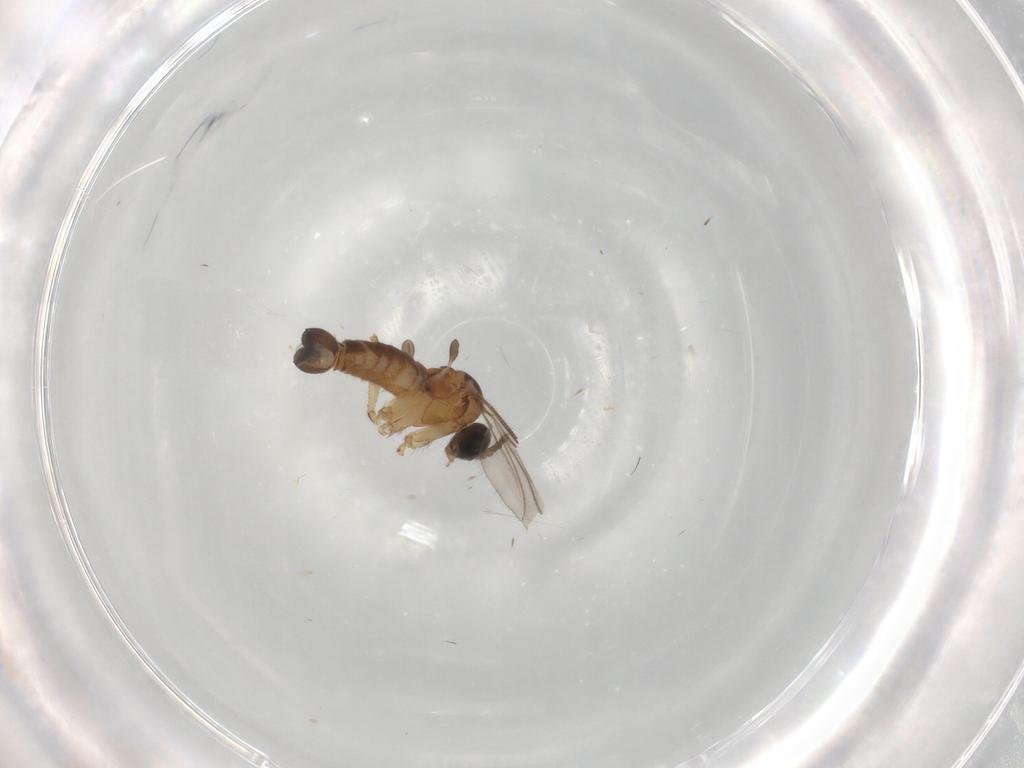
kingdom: Animalia
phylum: Arthropoda
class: Insecta
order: Diptera
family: Sciaridae
